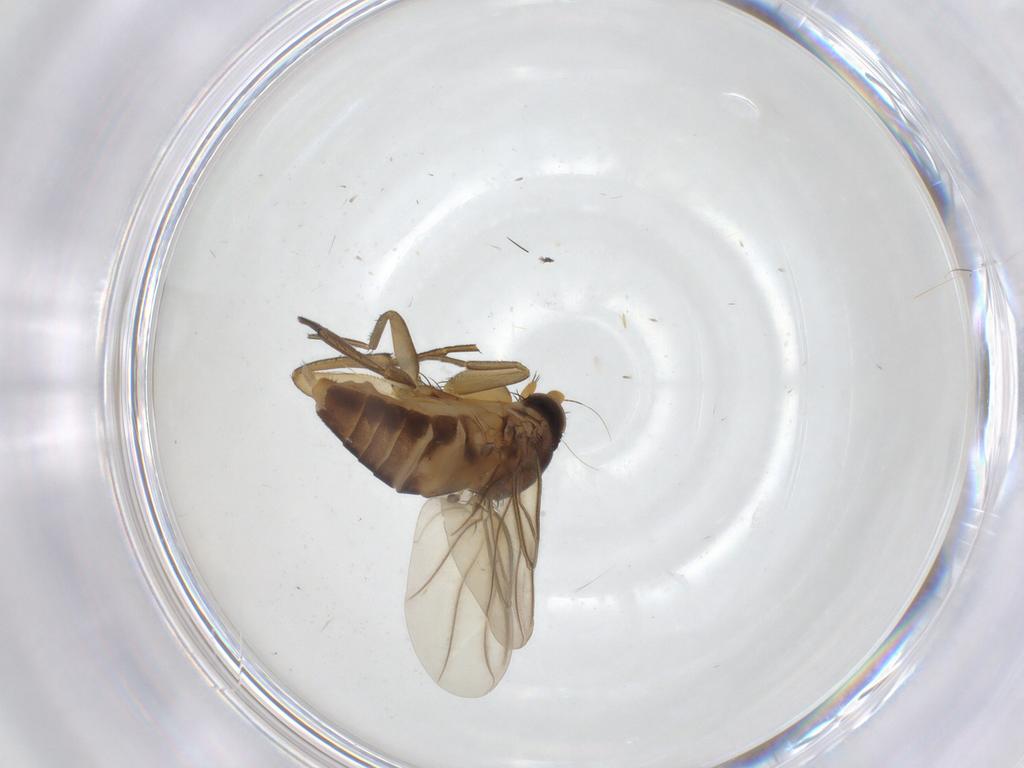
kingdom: Animalia
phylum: Arthropoda
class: Insecta
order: Diptera
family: Phoridae
